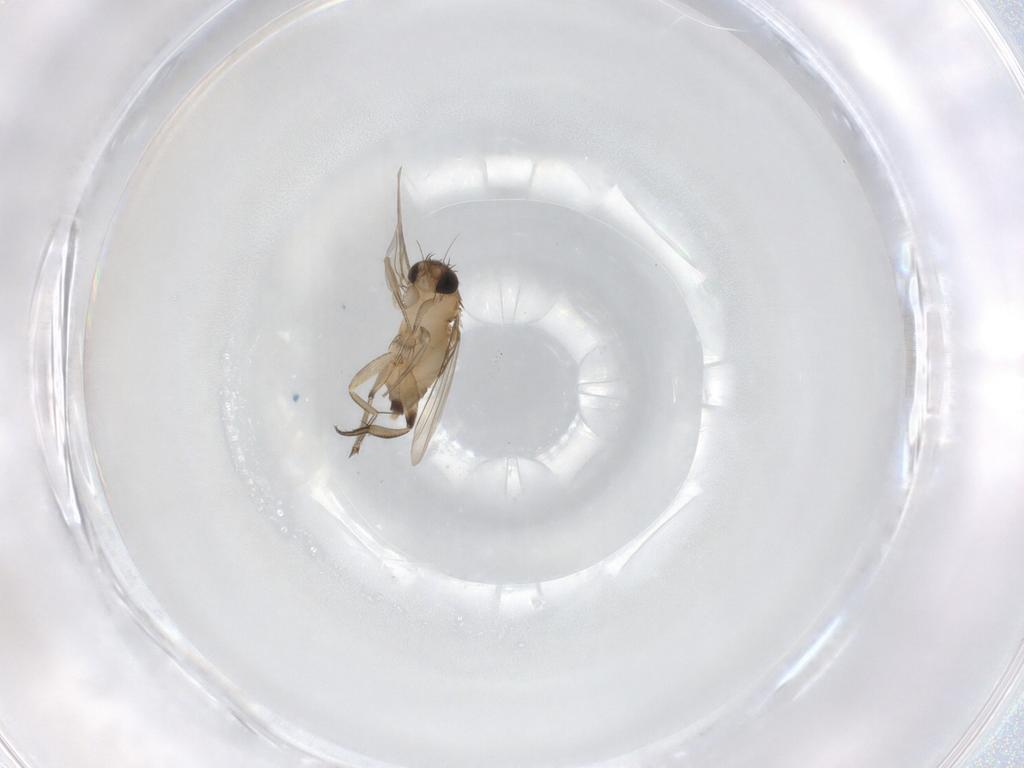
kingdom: Animalia
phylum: Arthropoda
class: Insecta
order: Diptera
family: Phoridae
